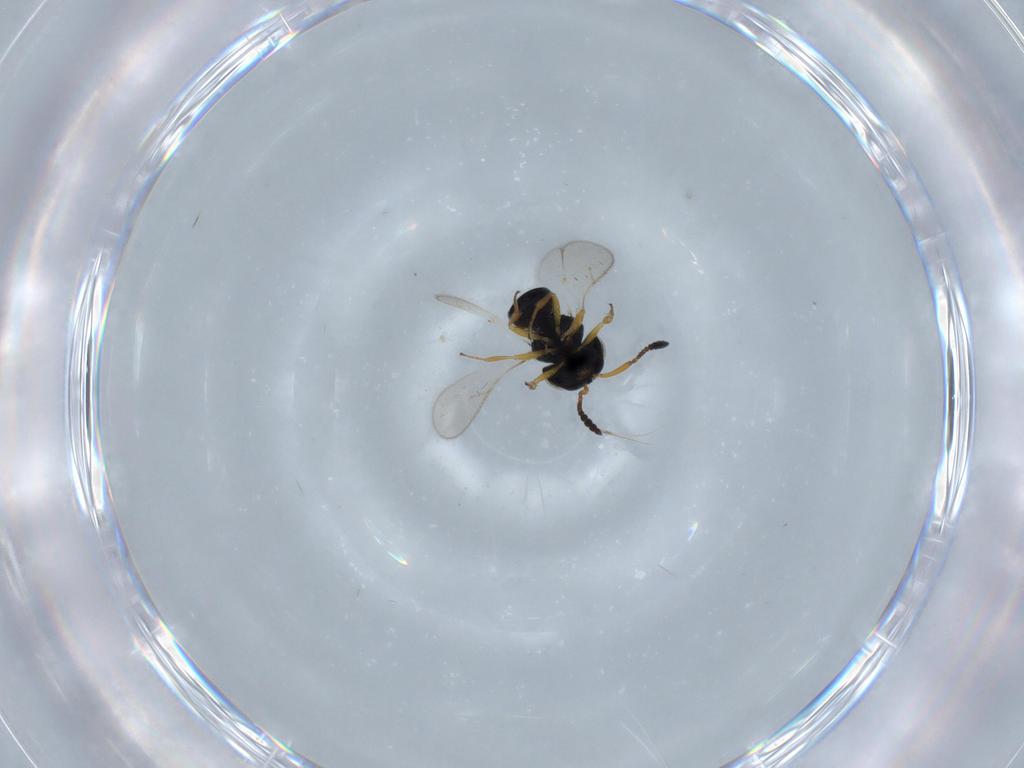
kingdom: Animalia
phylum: Arthropoda
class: Insecta
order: Hymenoptera
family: Scelionidae
